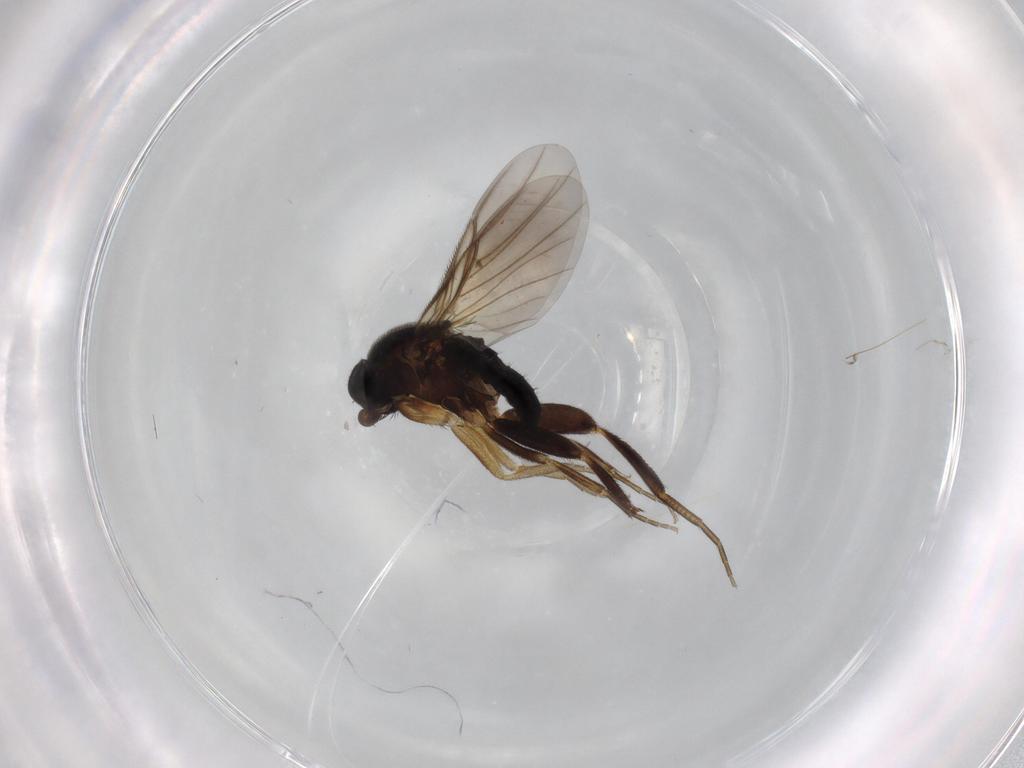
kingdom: Animalia
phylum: Arthropoda
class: Insecta
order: Diptera
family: Phoridae
